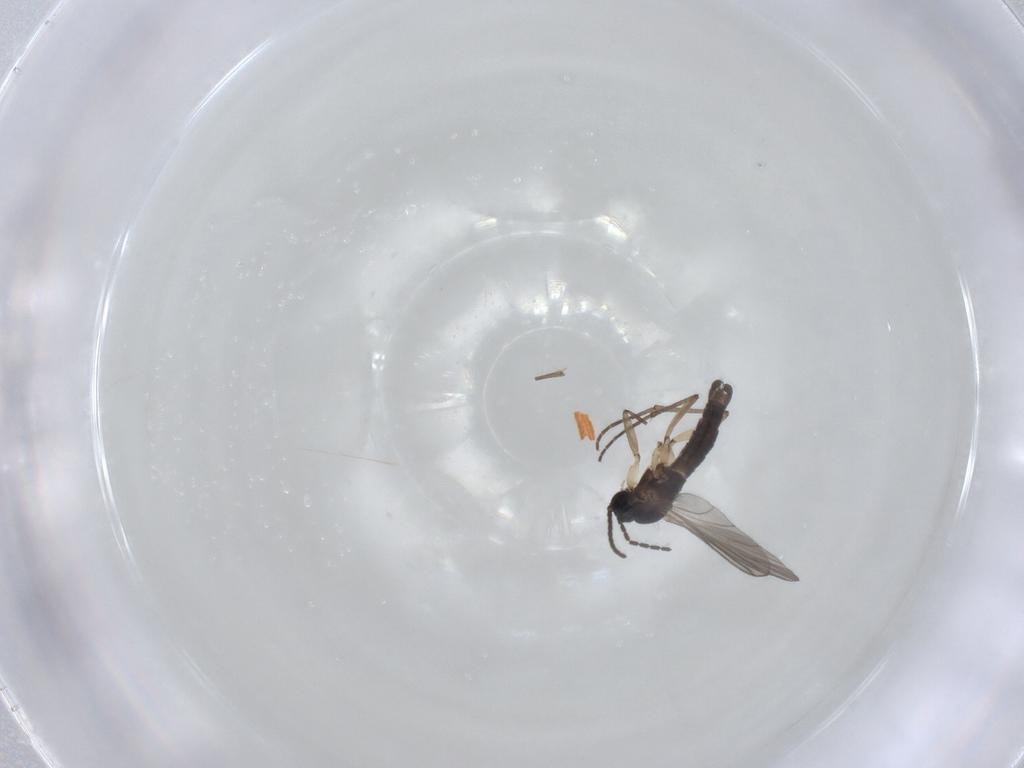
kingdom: Animalia
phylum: Arthropoda
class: Insecta
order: Diptera
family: Sciaridae
